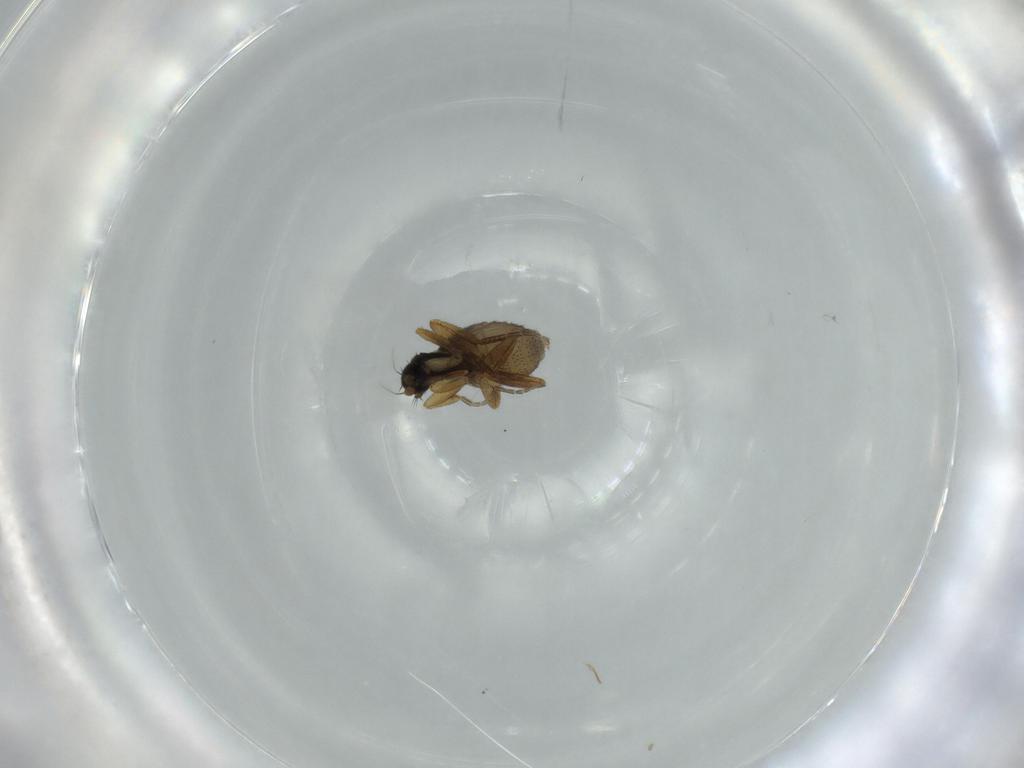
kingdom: Animalia
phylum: Arthropoda
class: Insecta
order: Diptera
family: Phoridae
